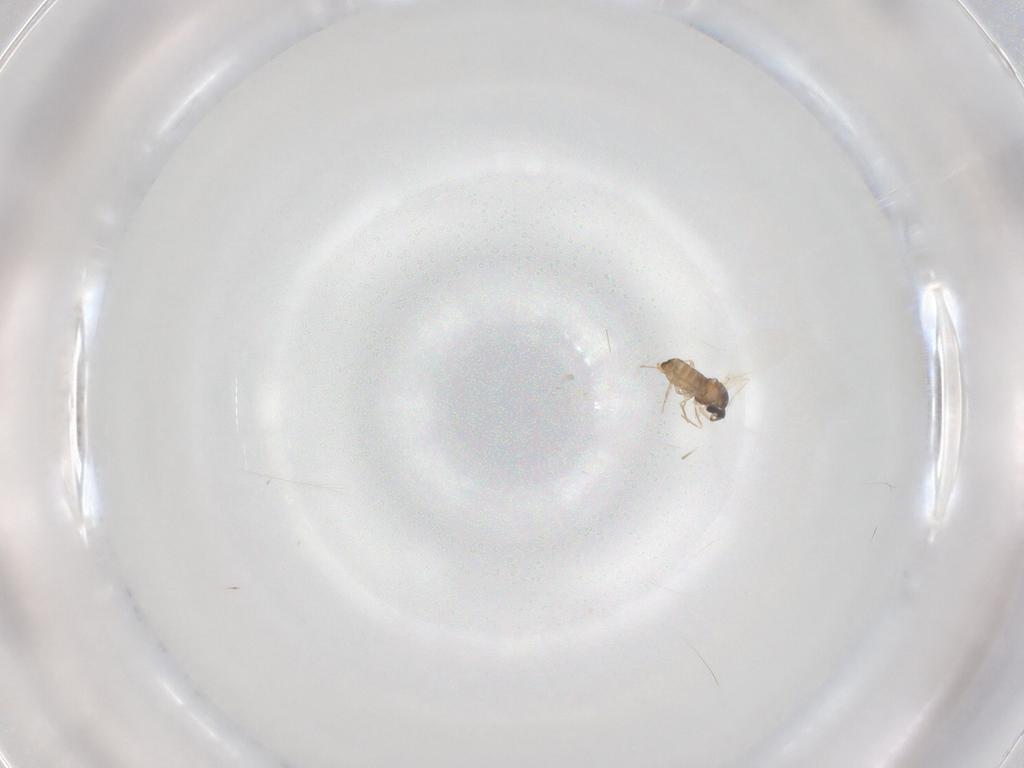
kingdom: Animalia
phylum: Arthropoda
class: Insecta
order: Diptera
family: Cecidomyiidae
